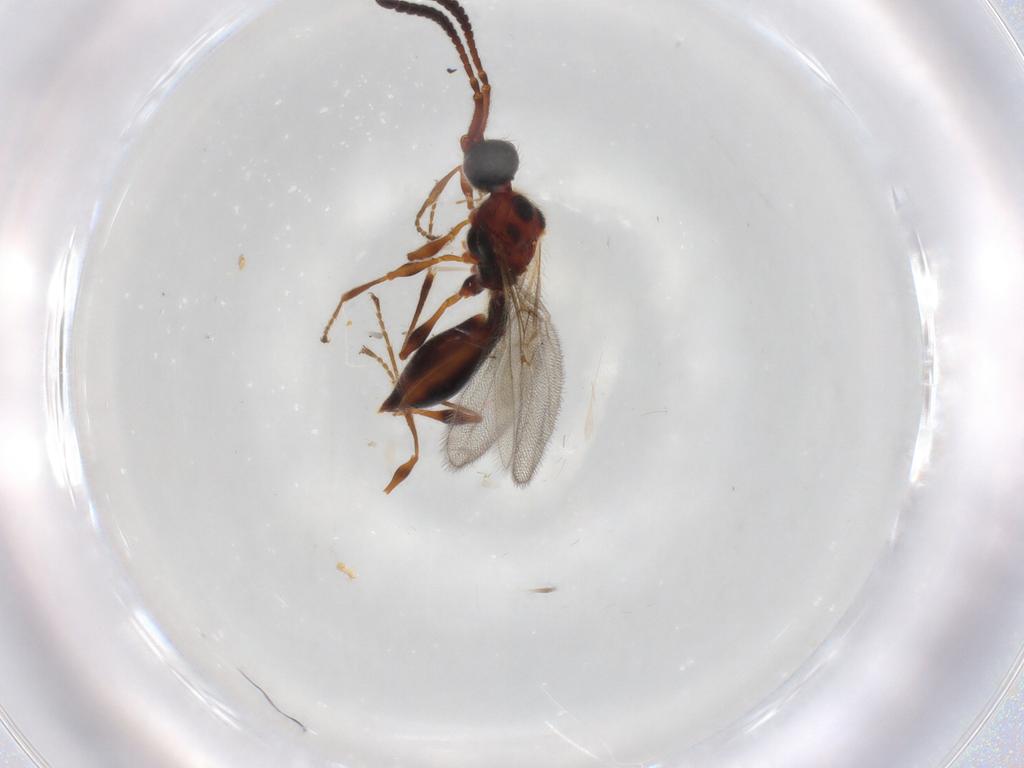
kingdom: Animalia
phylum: Arthropoda
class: Insecta
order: Hymenoptera
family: Diapriidae
